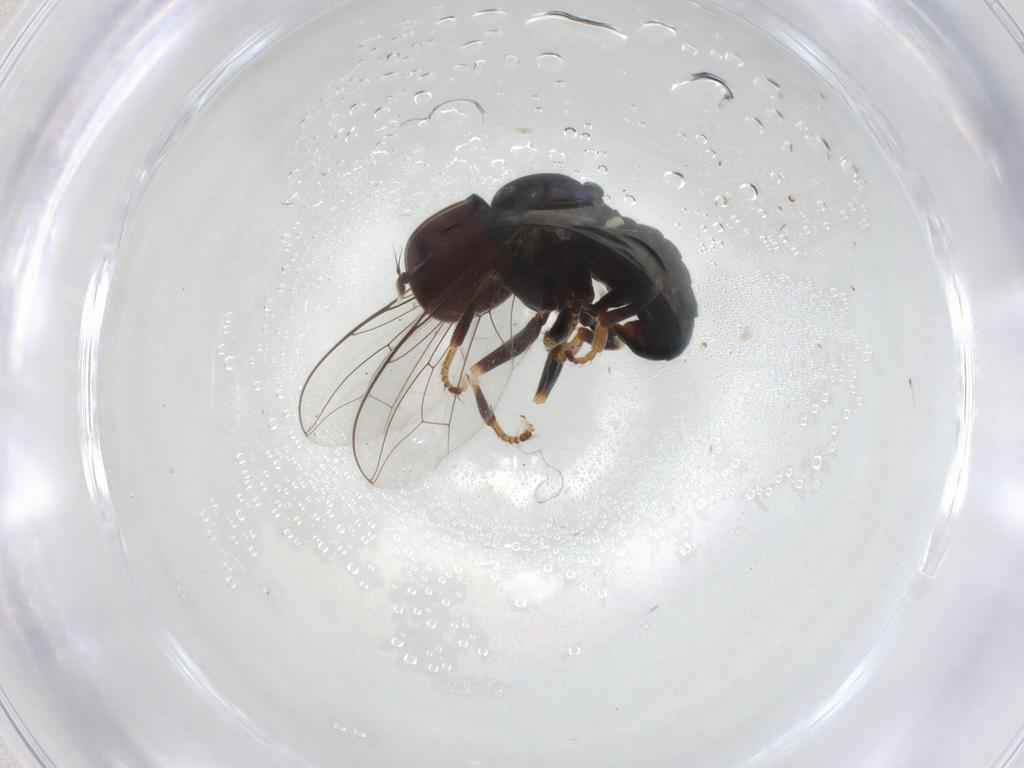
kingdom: Animalia
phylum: Arthropoda
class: Insecta
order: Diptera
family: Pipunculidae
